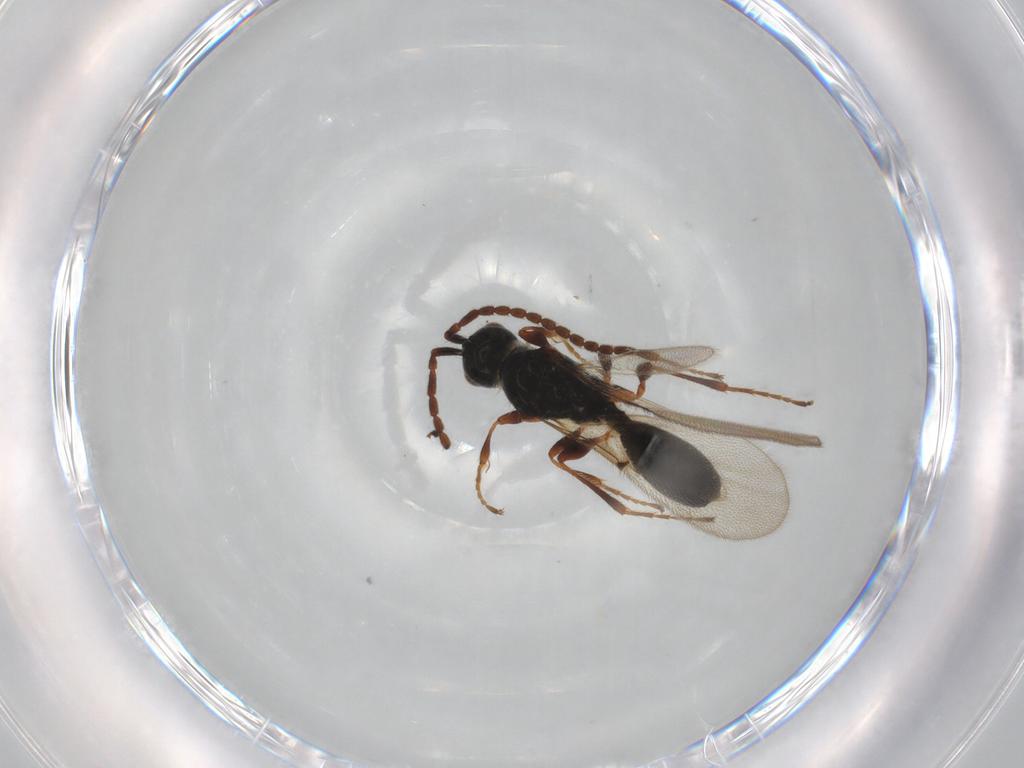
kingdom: Animalia
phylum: Arthropoda
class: Insecta
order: Hymenoptera
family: Diapriidae
